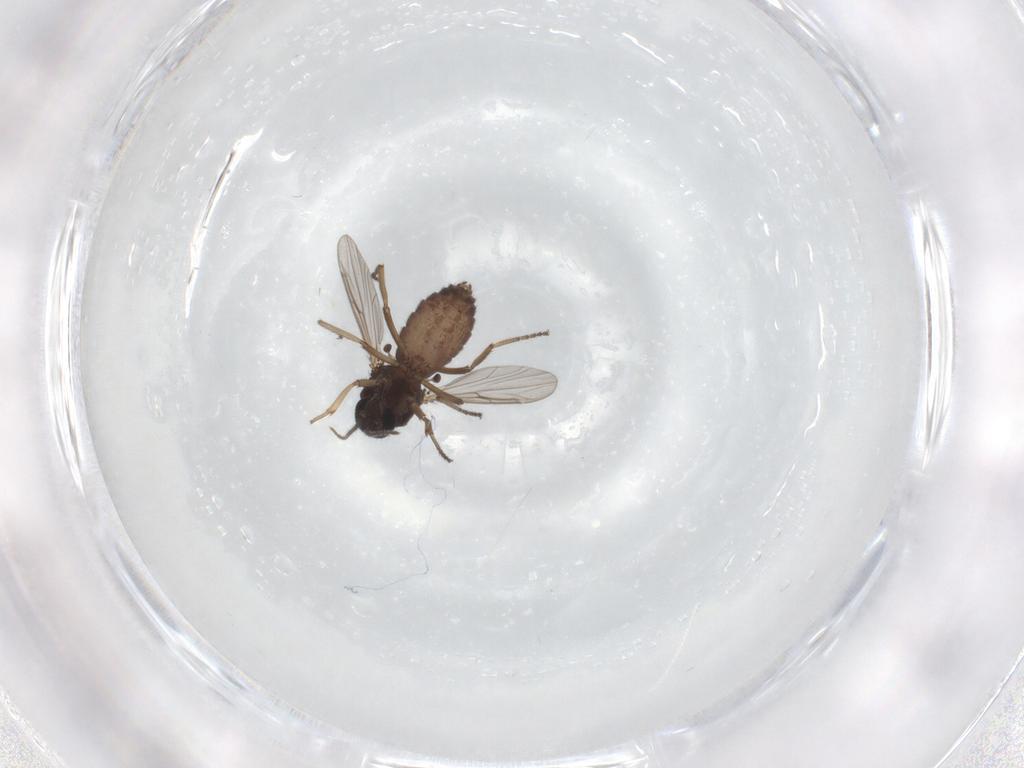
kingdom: Animalia
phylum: Arthropoda
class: Insecta
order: Diptera
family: Ceratopogonidae
